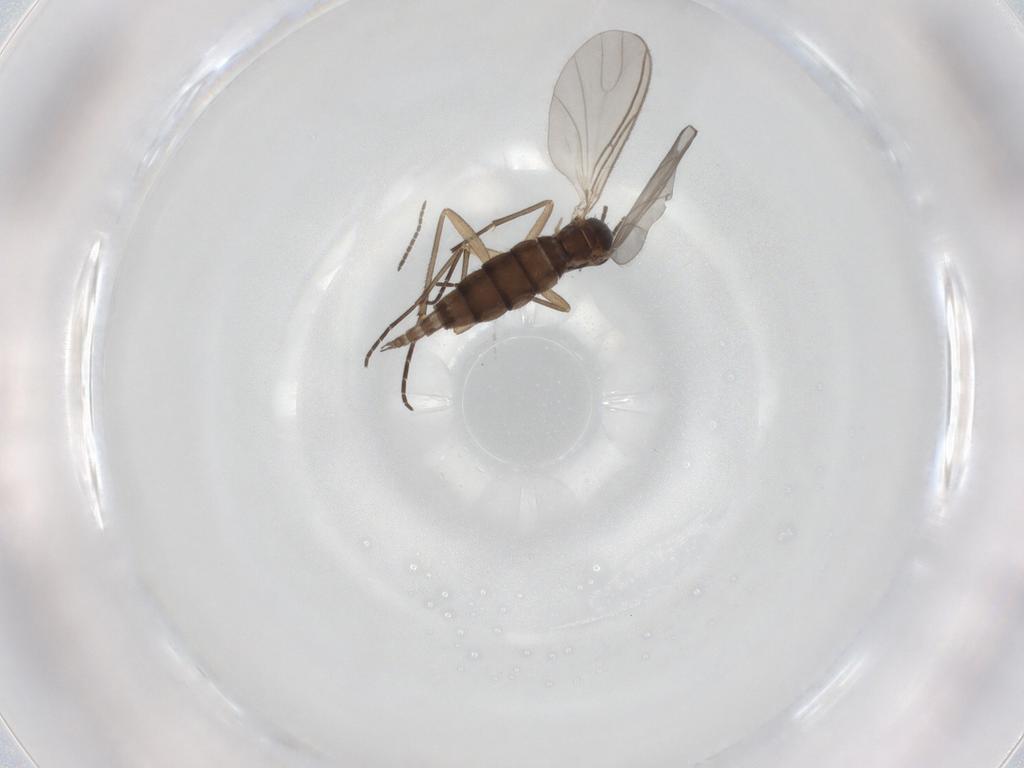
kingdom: Animalia
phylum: Arthropoda
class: Insecta
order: Diptera
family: Sciaridae
